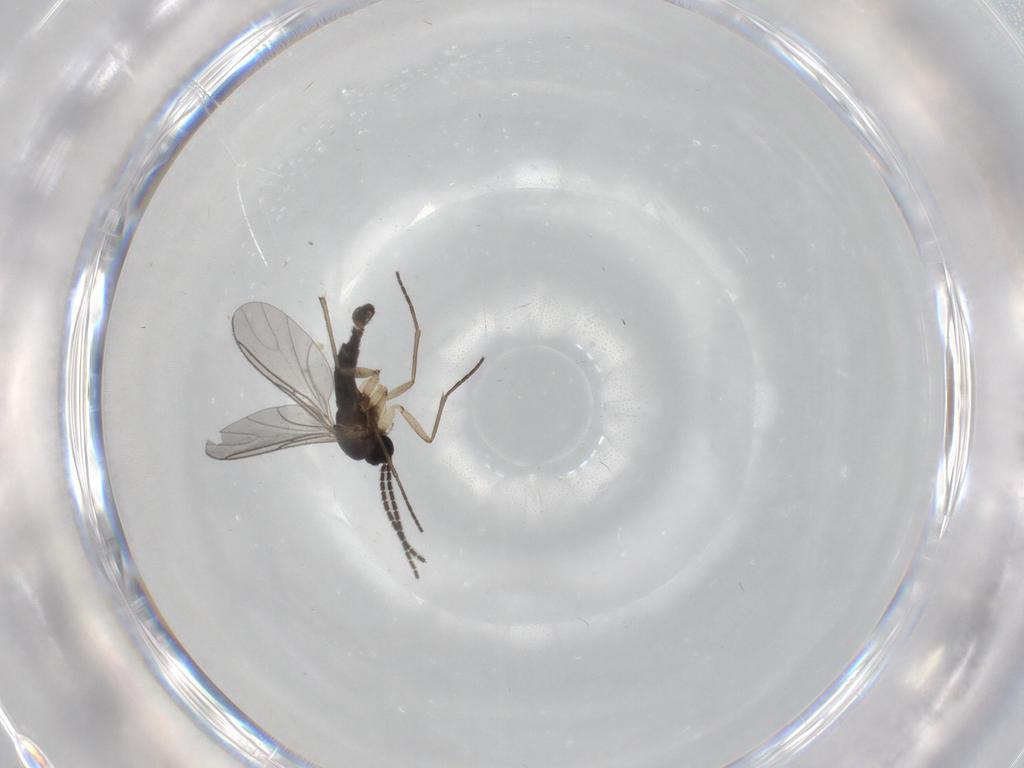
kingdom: Animalia
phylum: Arthropoda
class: Insecta
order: Diptera
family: Sciaridae
